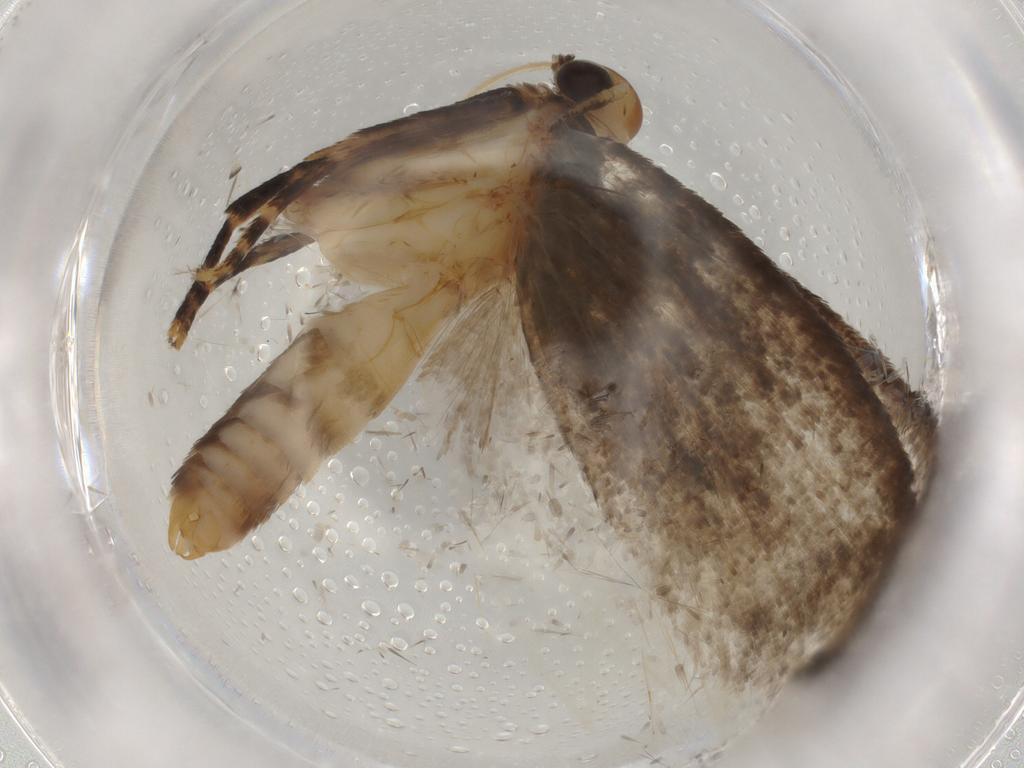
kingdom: Animalia
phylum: Arthropoda
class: Insecta
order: Lepidoptera
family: Oecophoridae
